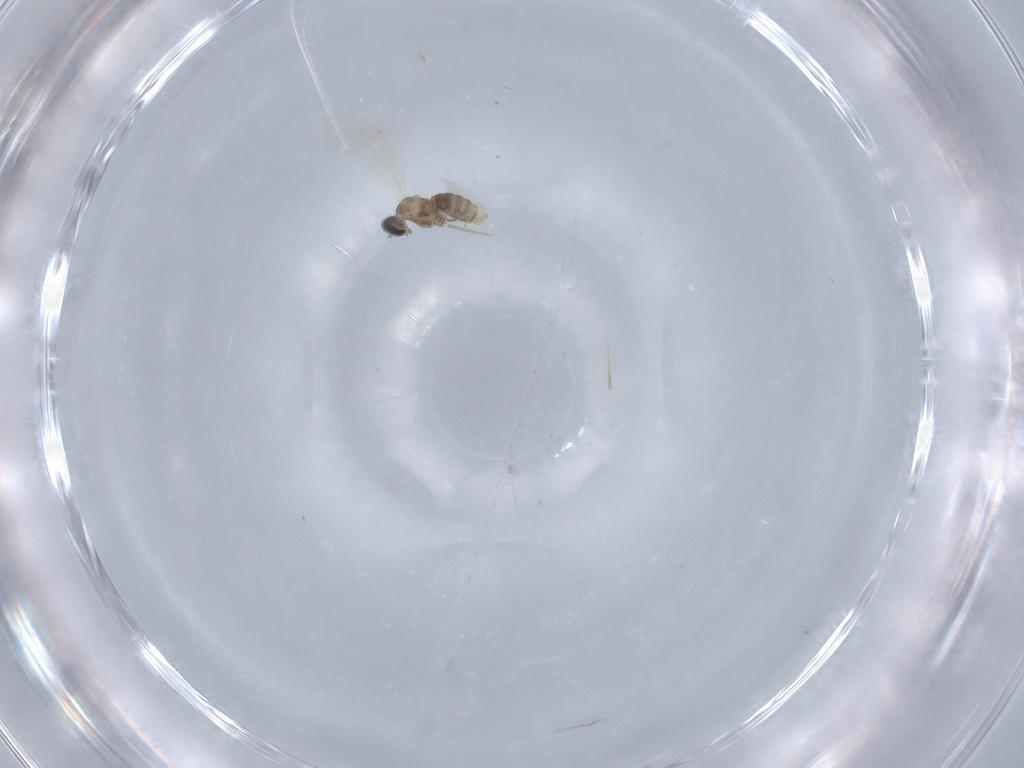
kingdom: Animalia
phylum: Arthropoda
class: Insecta
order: Diptera
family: Cecidomyiidae
